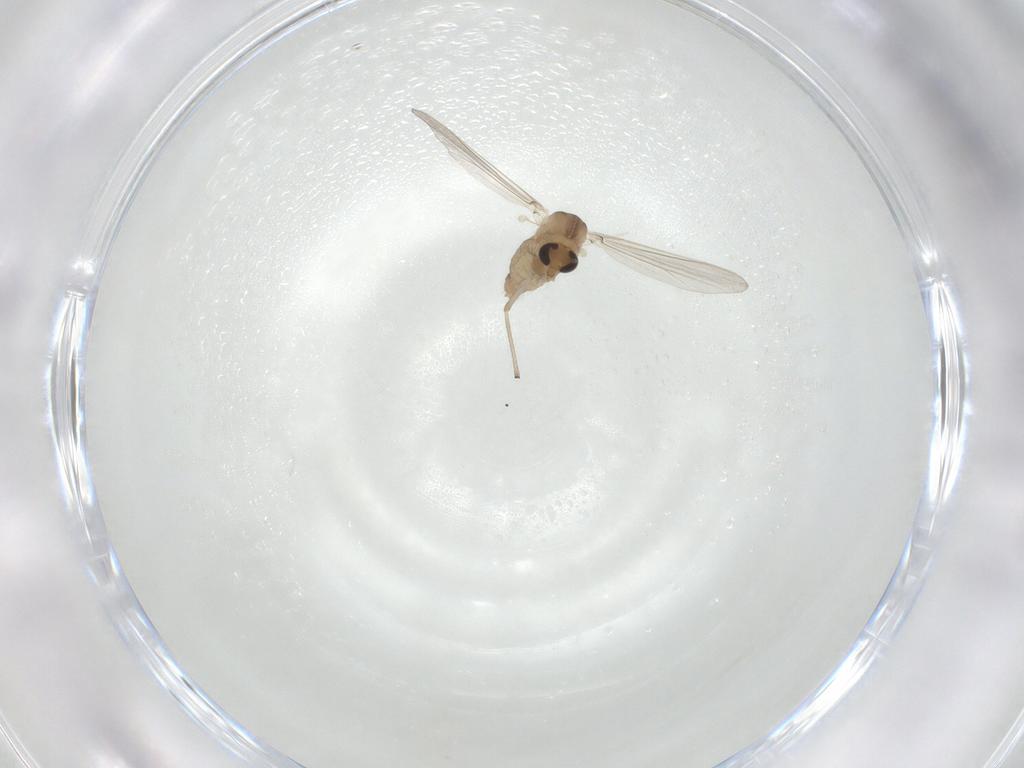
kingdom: Animalia
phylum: Arthropoda
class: Insecta
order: Diptera
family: Chironomidae
